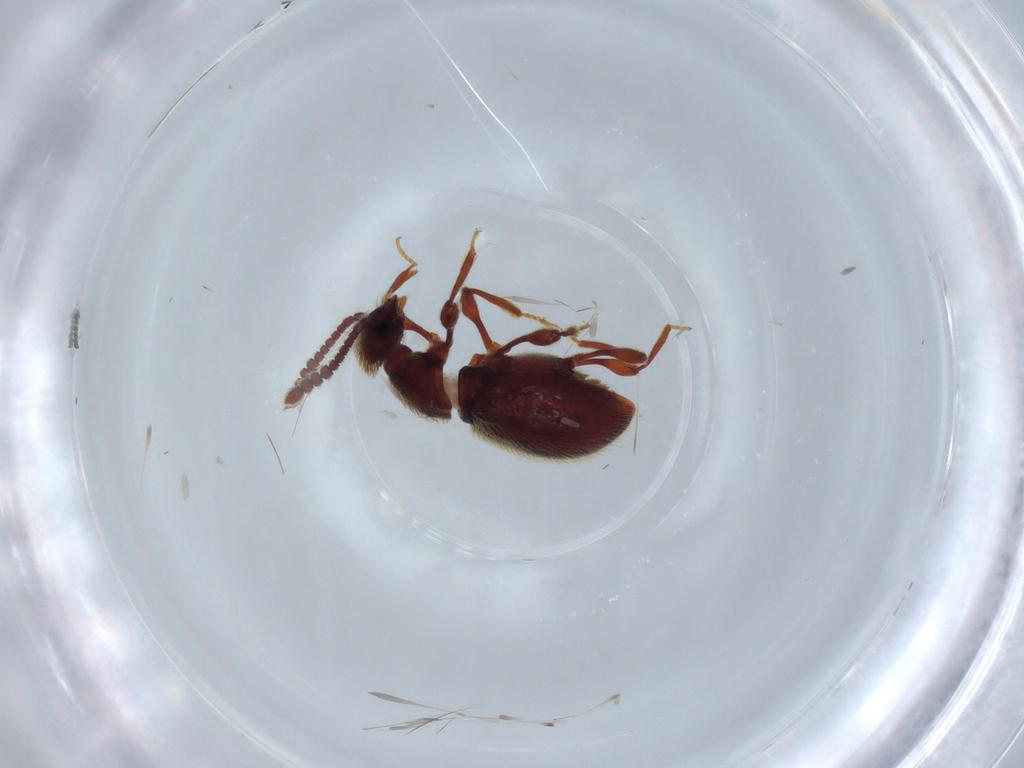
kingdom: Animalia
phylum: Arthropoda
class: Insecta
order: Coleoptera
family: Staphylinidae
